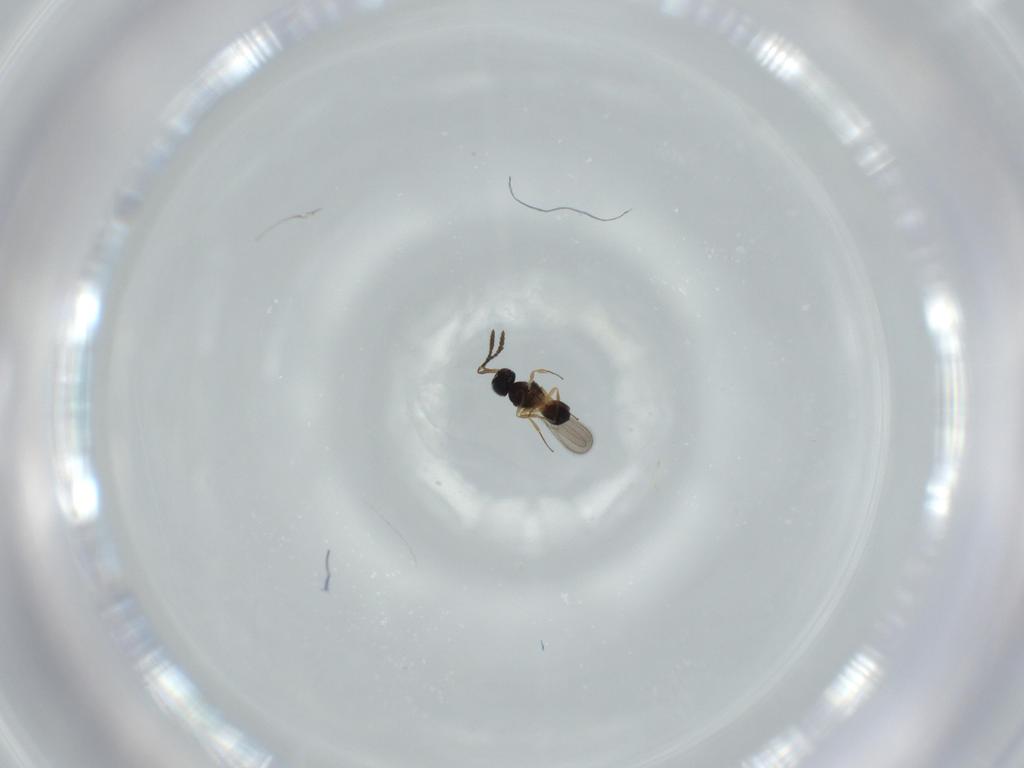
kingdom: Animalia
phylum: Arthropoda
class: Insecta
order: Hymenoptera
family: Scelionidae
